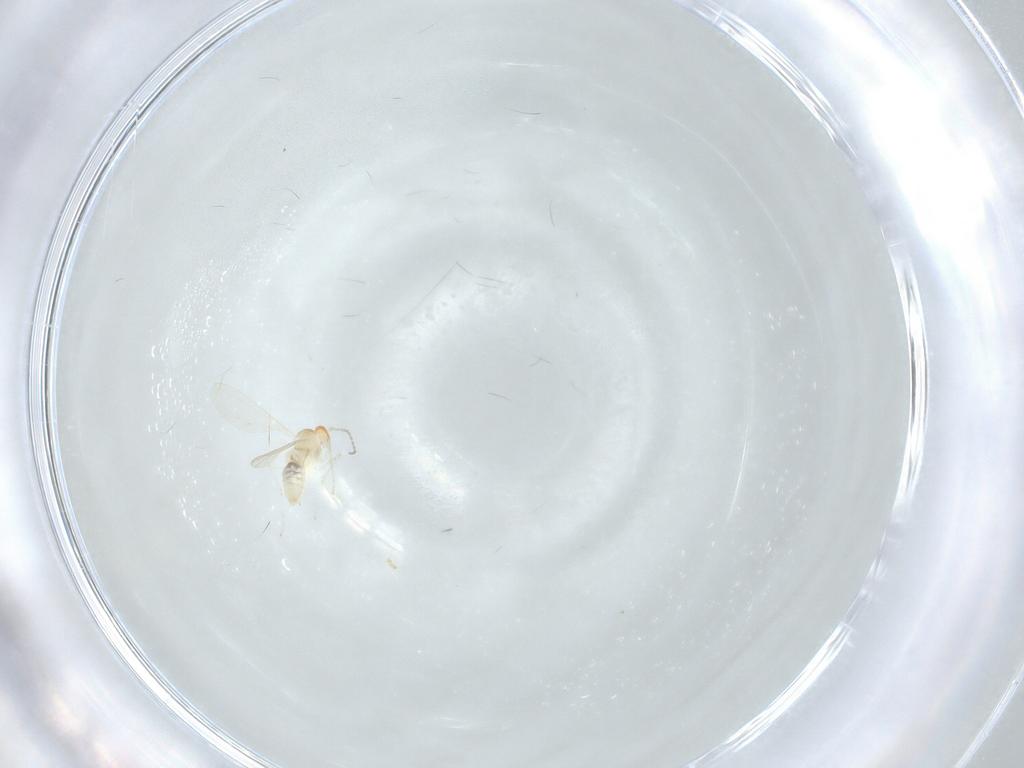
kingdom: Animalia
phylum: Arthropoda
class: Insecta
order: Diptera
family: Cecidomyiidae
